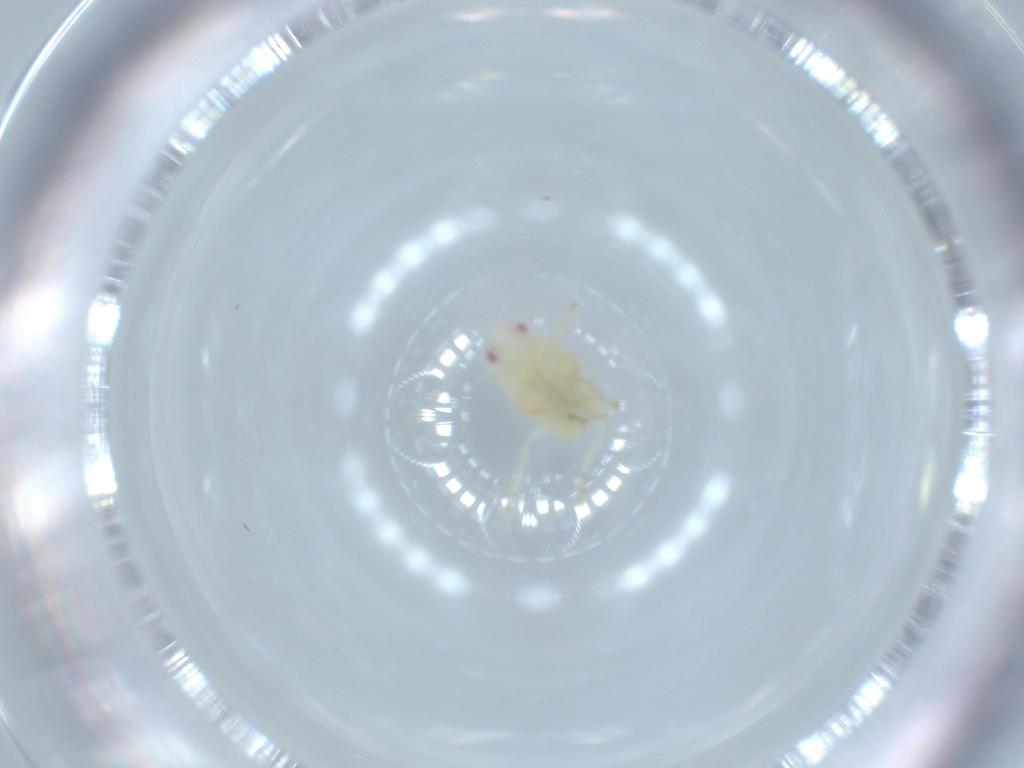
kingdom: Animalia
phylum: Arthropoda
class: Insecta
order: Hemiptera
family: Flatidae
